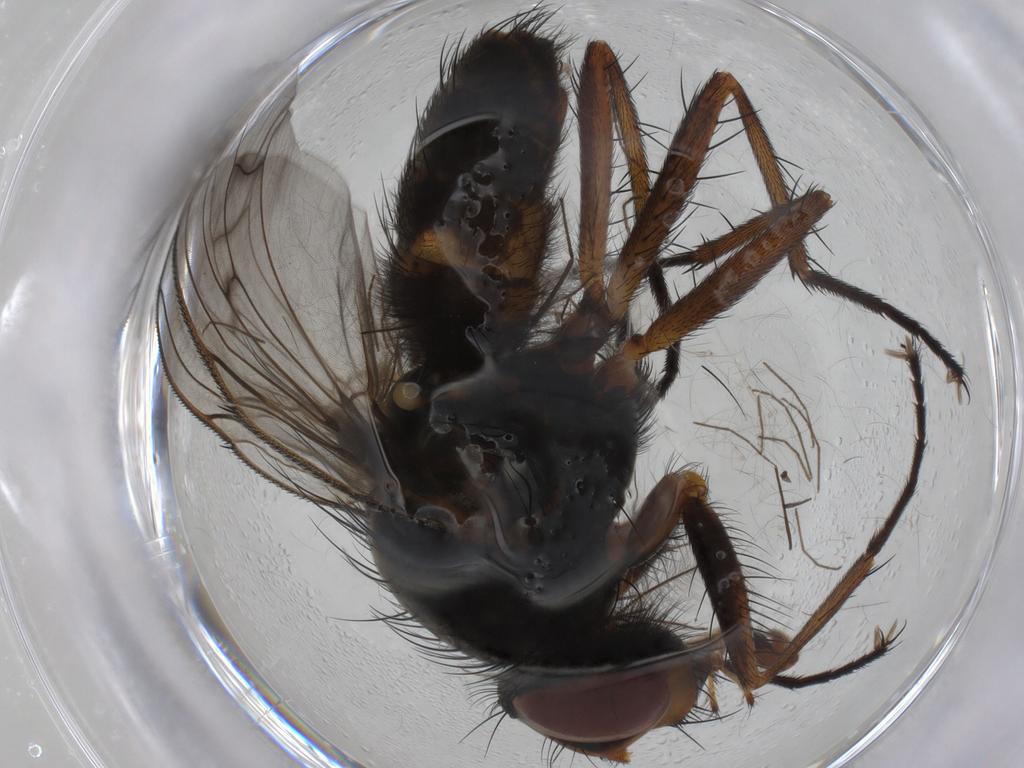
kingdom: Animalia
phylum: Arthropoda
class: Insecta
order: Diptera
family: Anthomyiidae
